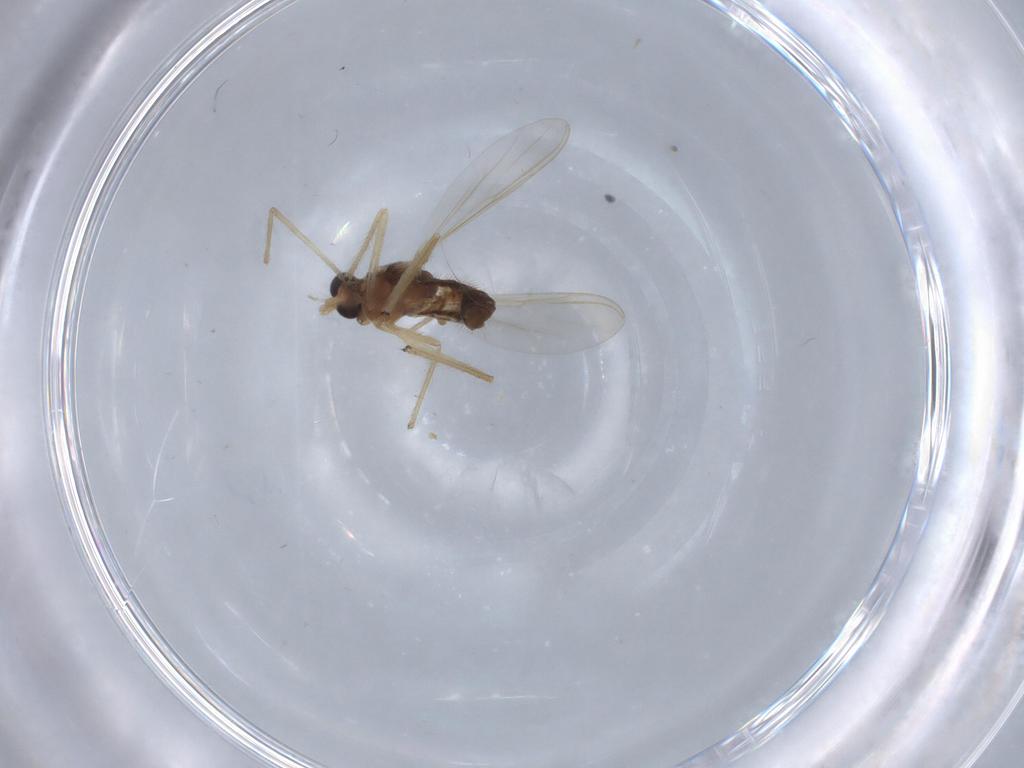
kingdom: Animalia
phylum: Arthropoda
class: Insecta
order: Diptera
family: Chironomidae
